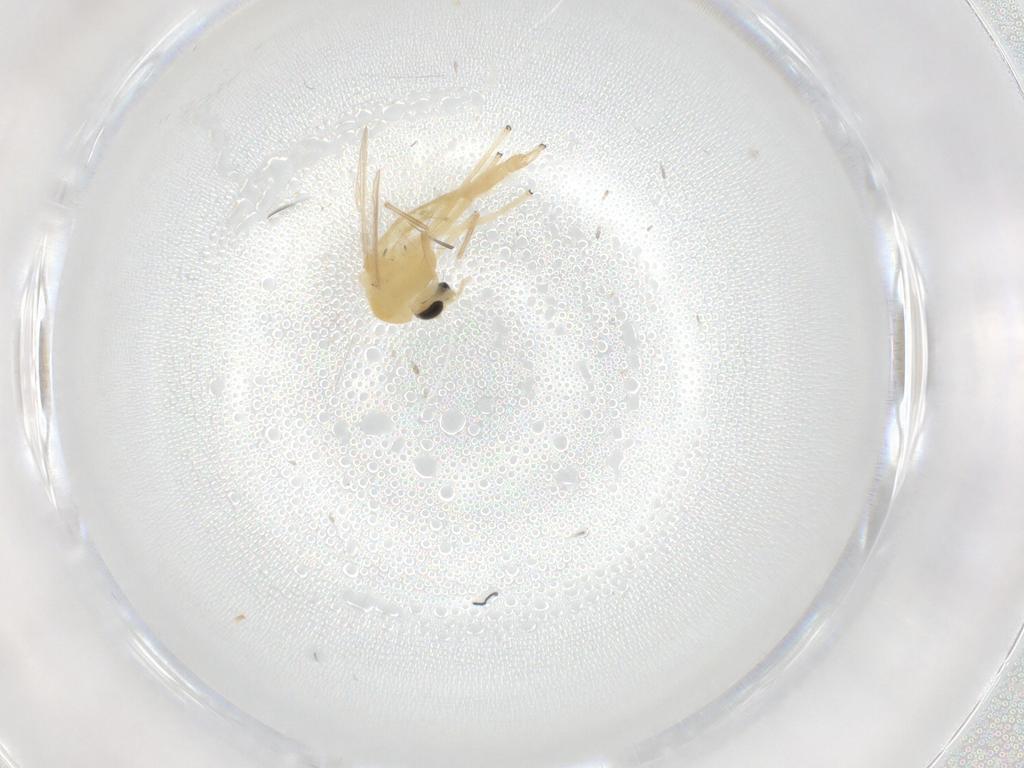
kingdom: Animalia
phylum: Arthropoda
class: Insecta
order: Diptera
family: Chironomidae
